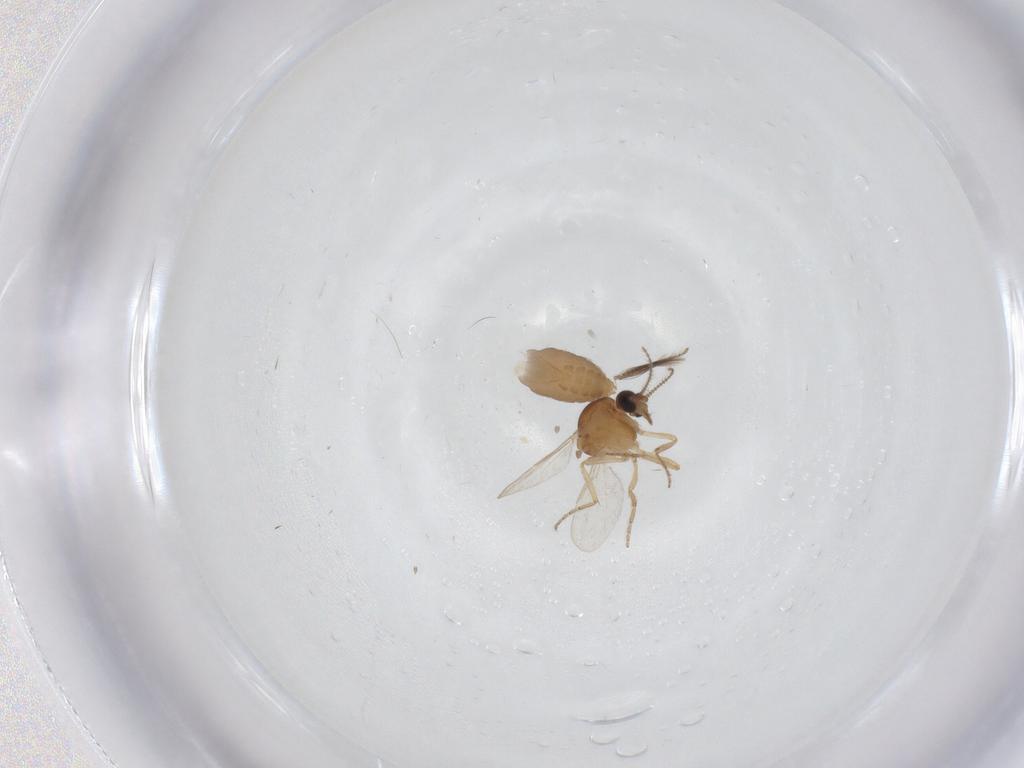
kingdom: Animalia
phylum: Arthropoda
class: Insecta
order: Diptera
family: Ceratopogonidae
